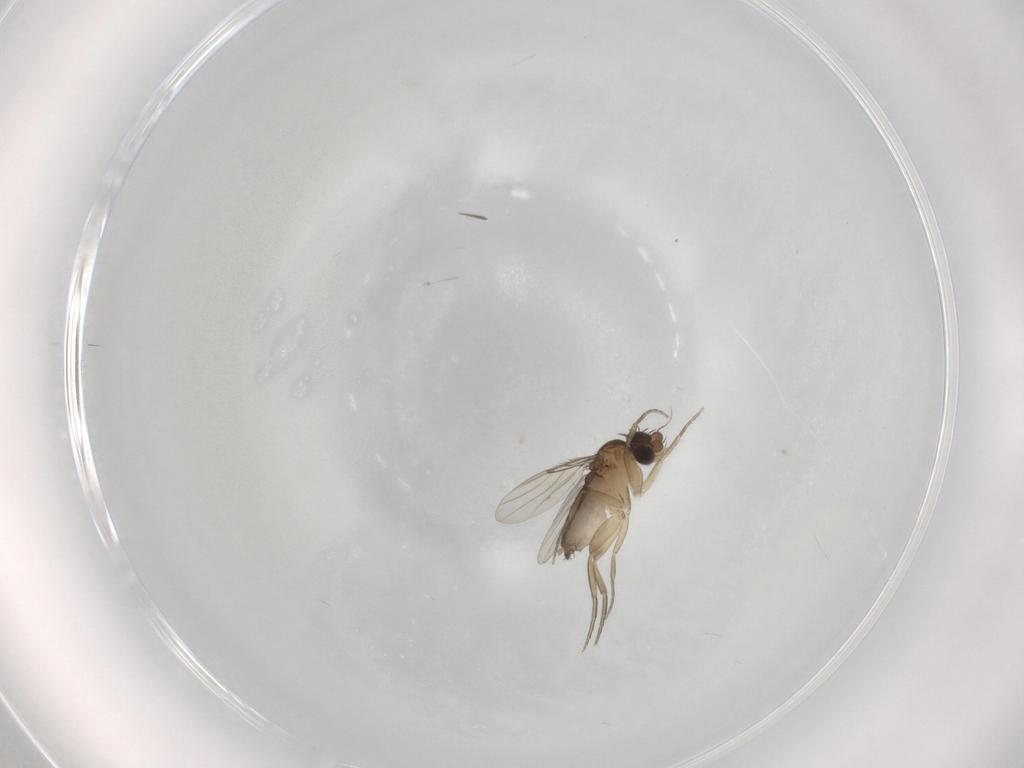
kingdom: Animalia
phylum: Arthropoda
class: Insecta
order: Diptera
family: Phoridae
